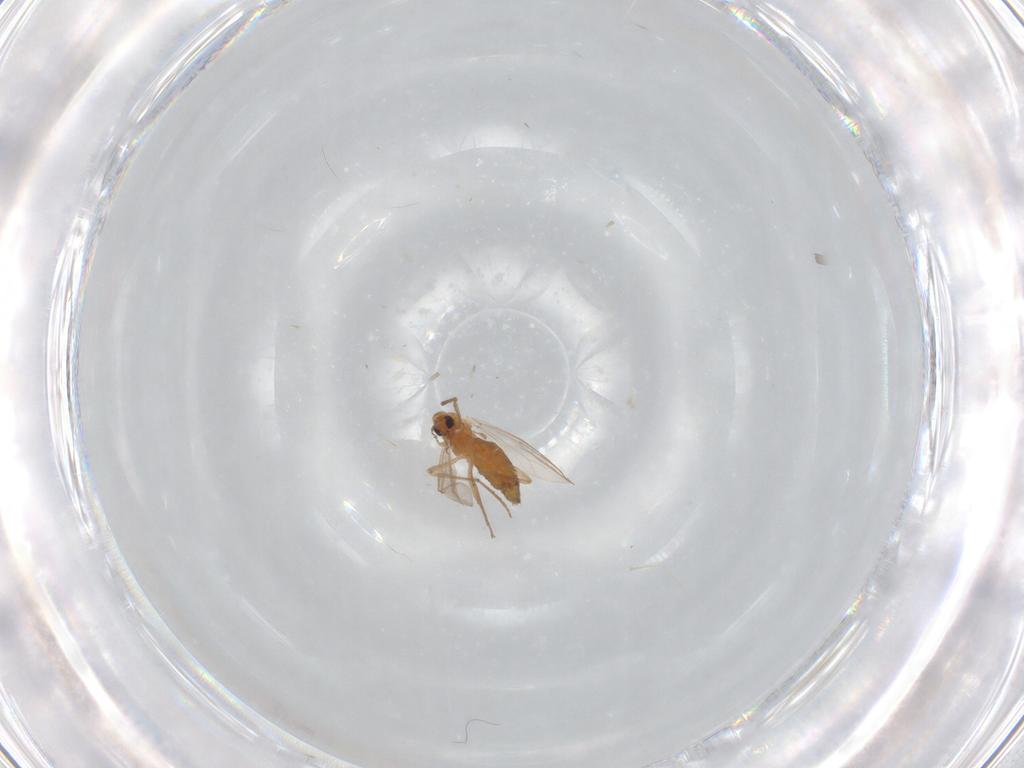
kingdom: Animalia
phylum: Arthropoda
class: Insecta
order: Diptera
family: Chironomidae
